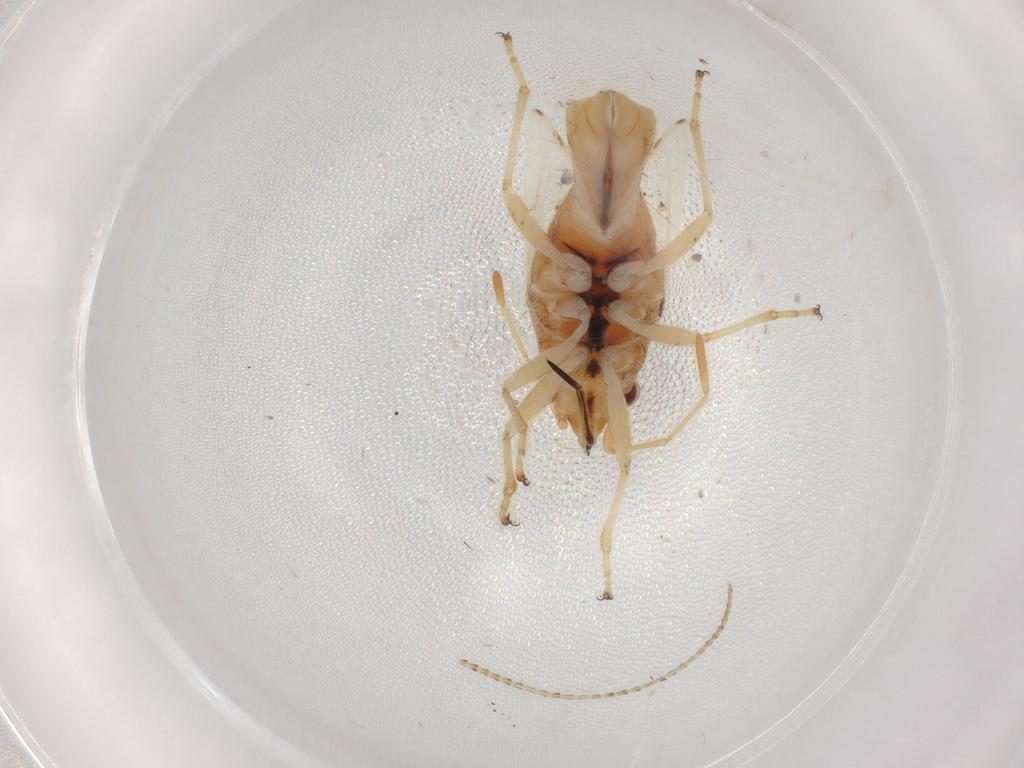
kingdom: Animalia
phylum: Arthropoda
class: Insecta
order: Hemiptera
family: Lygaeidae
